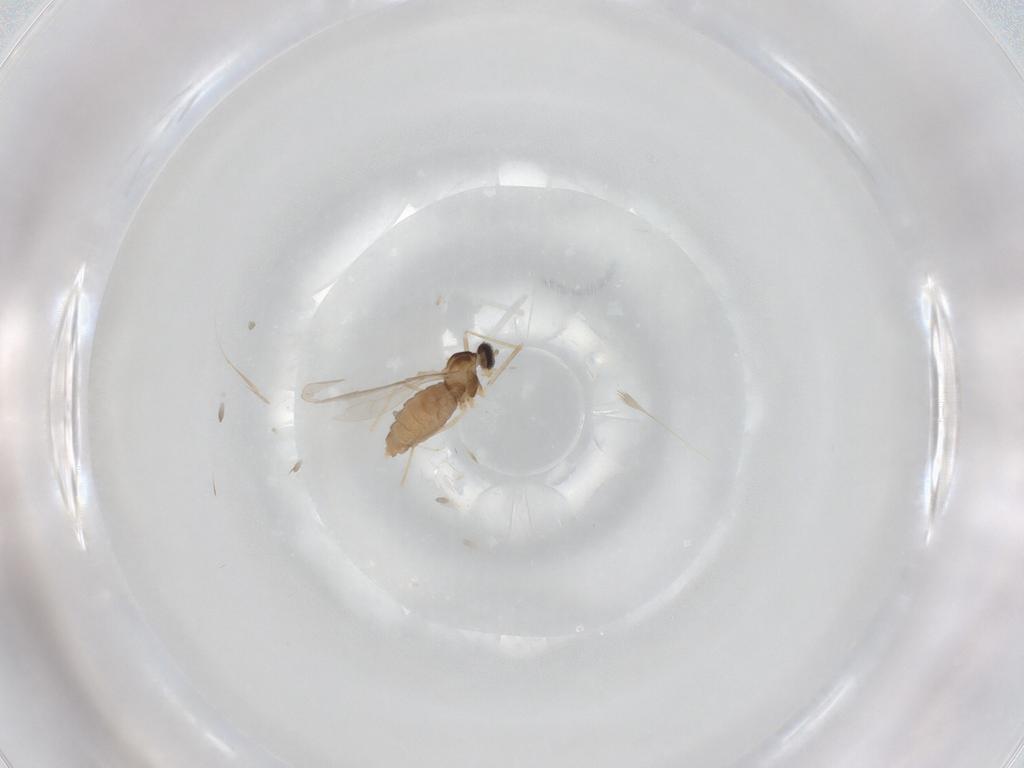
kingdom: Animalia
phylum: Arthropoda
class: Insecta
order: Diptera
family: Cecidomyiidae
